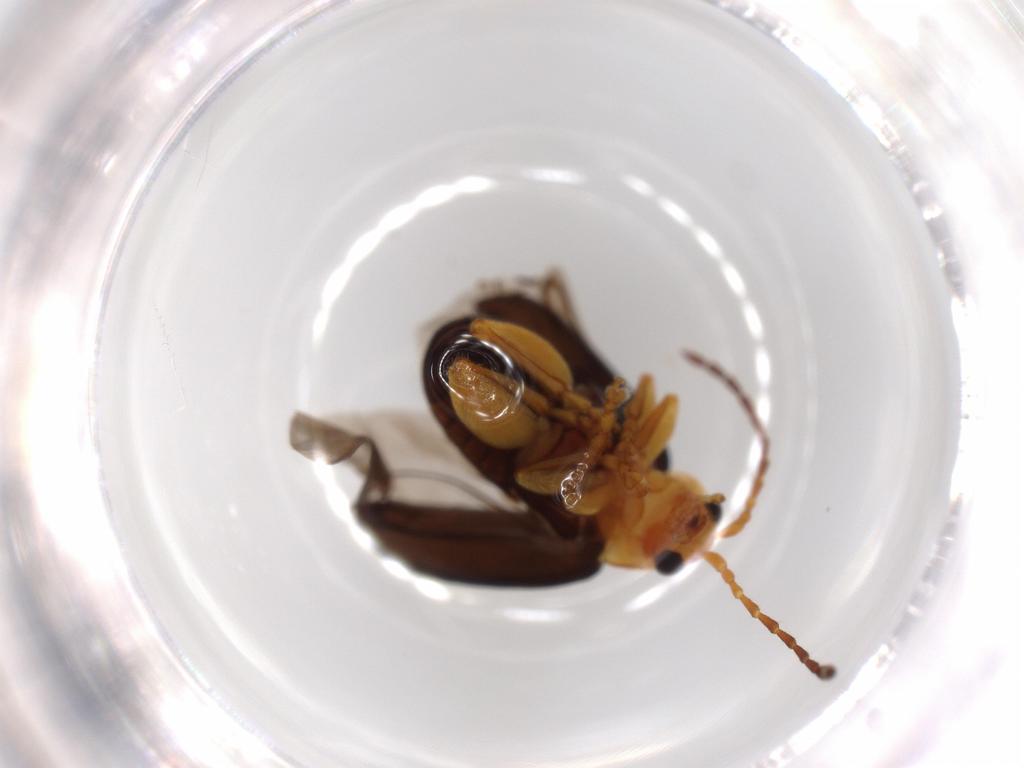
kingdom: Animalia
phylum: Arthropoda
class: Insecta
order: Coleoptera
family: Chrysomelidae
